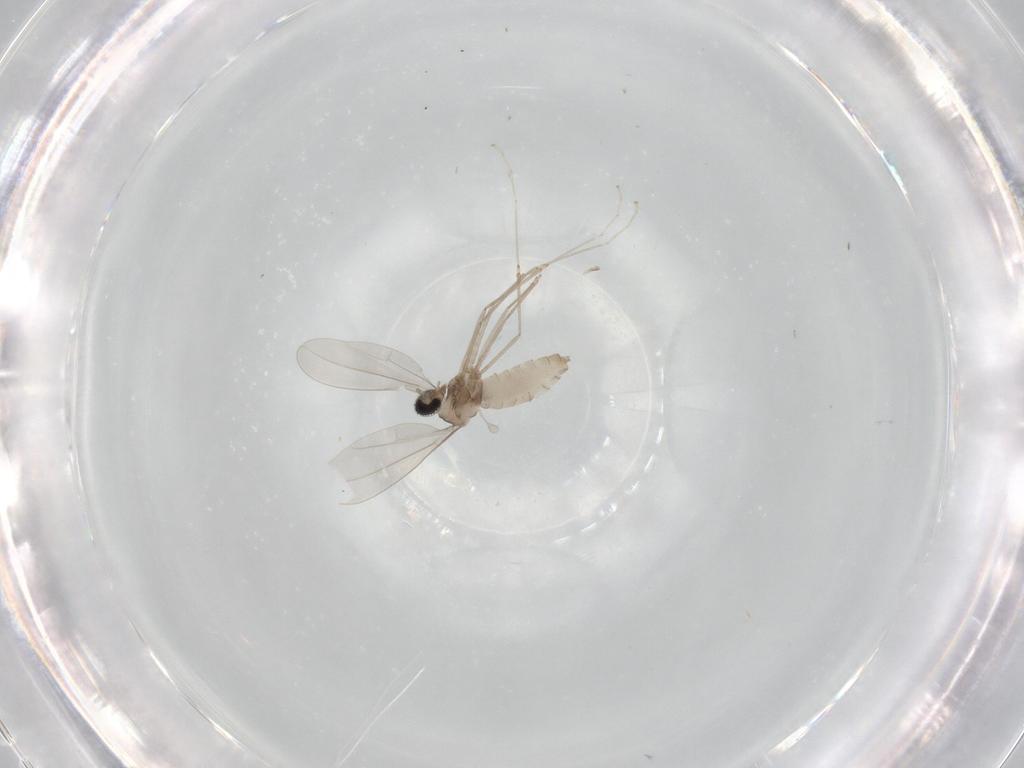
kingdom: Animalia
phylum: Arthropoda
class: Insecta
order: Diptera
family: Cecidomyiidae
